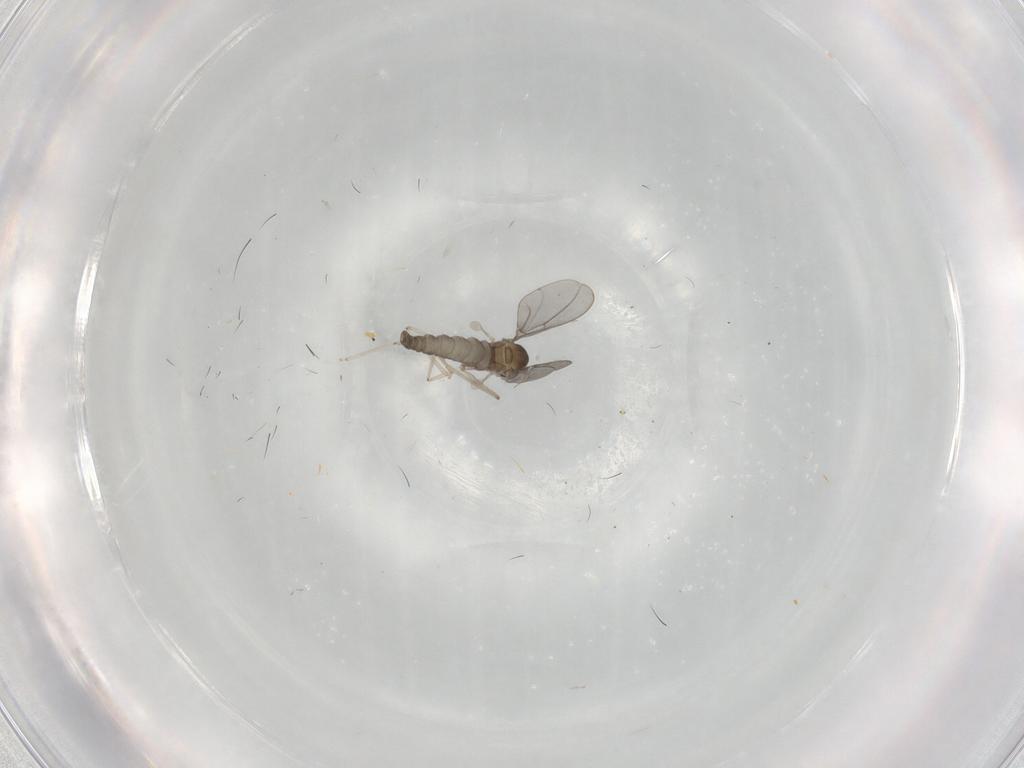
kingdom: Animalia
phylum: Arthropoda
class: Insecta
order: Diptera
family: Cecidomyiidae
